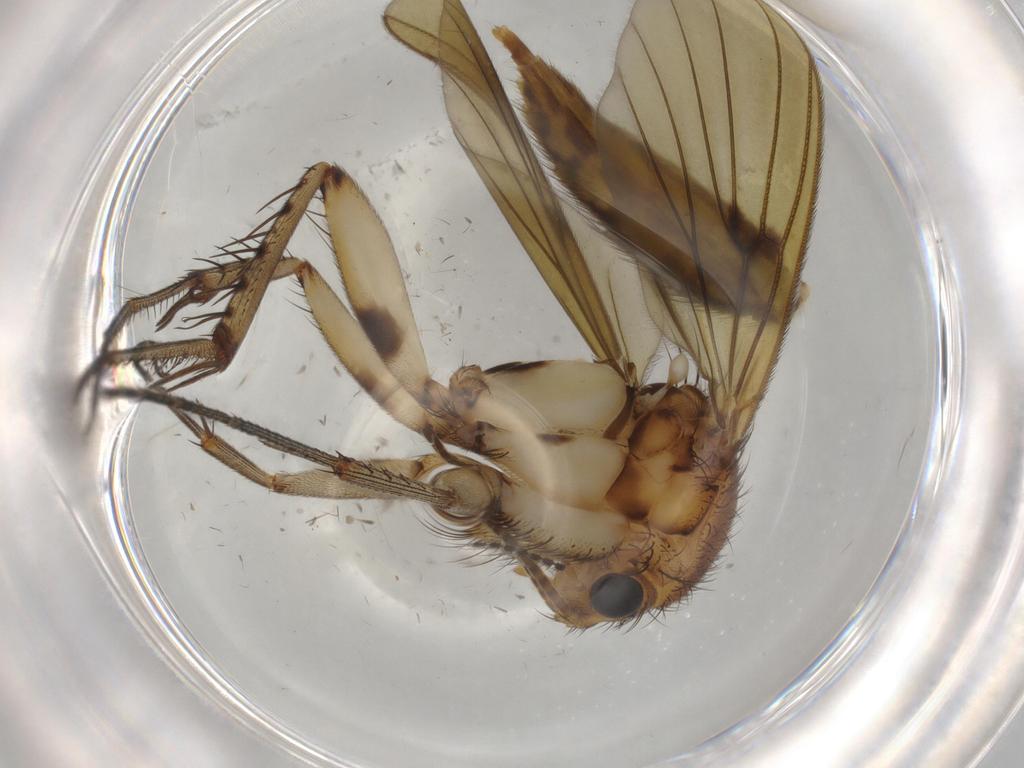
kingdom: Animalia
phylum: Arthropoda
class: Insecta
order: Diptera
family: Cecidomyiidae
